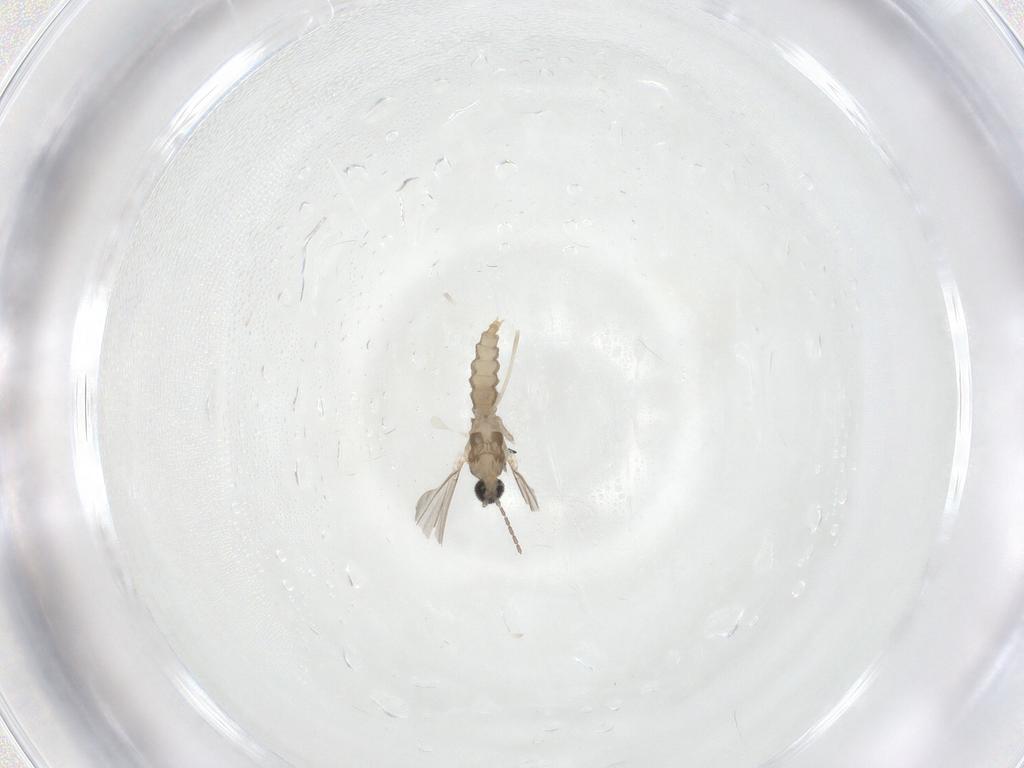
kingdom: Animalia
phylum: Arthropoda
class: Insecta
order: Diptera
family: Cecidomyiidae
